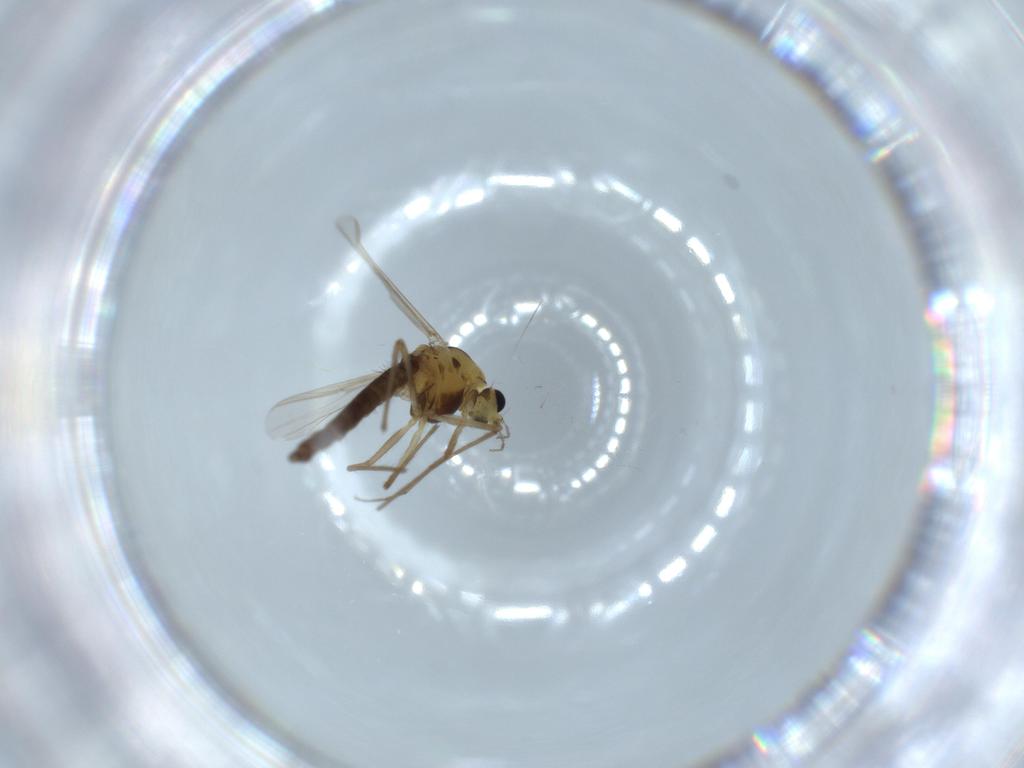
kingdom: Animalia
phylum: Arthropoda
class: Insecta
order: Diptera
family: Chironomidae
